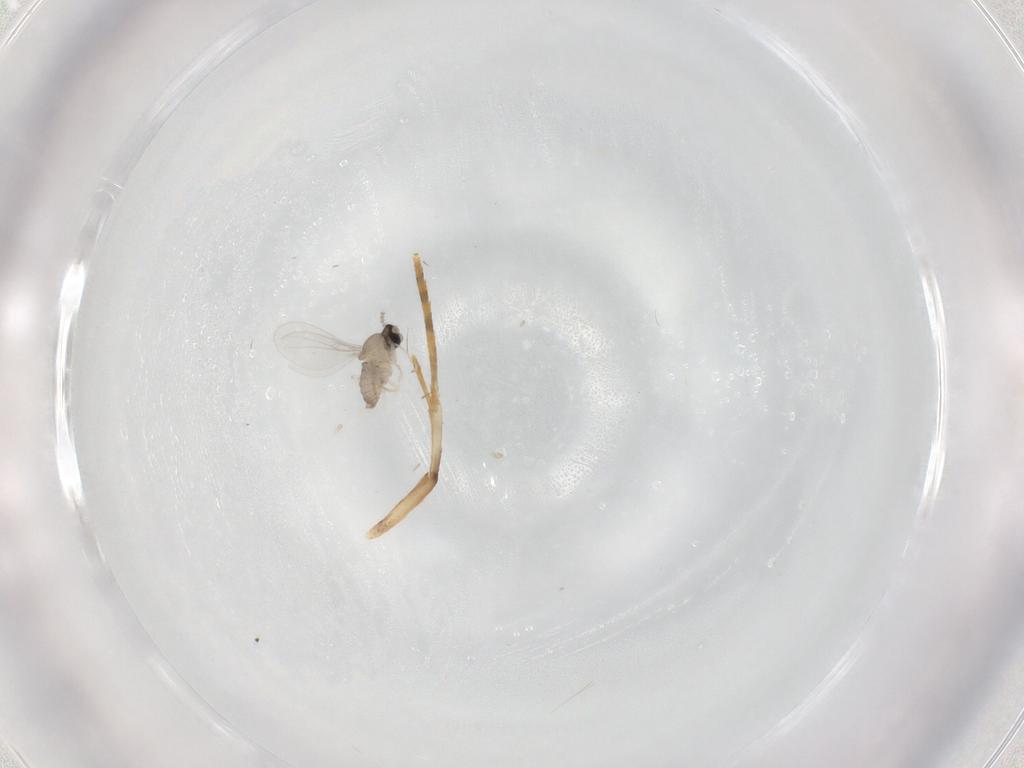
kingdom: Animalia
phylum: Arthropoda
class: Insecta
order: Diptera
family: Cecidomyiidae
